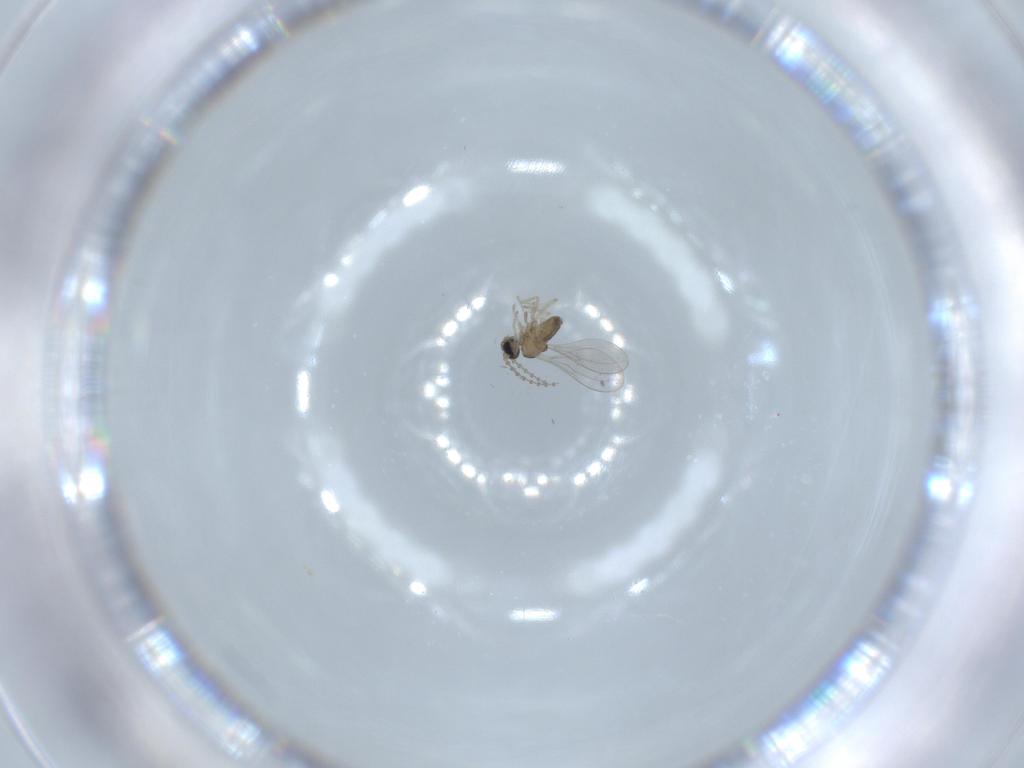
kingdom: Animalia
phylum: Arthropoda
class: Insecta
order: Diptera
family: Cecidomyiidae
